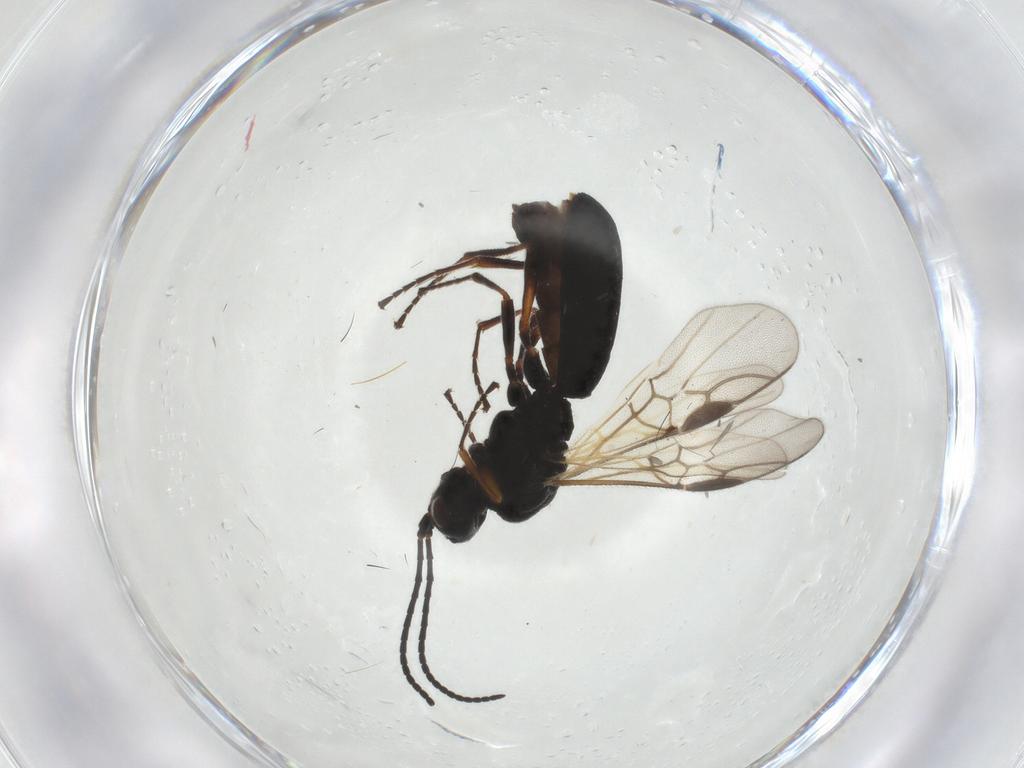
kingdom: Animalia
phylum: Arthropoda
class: Insecta
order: Hymenoptera
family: Braconidae
